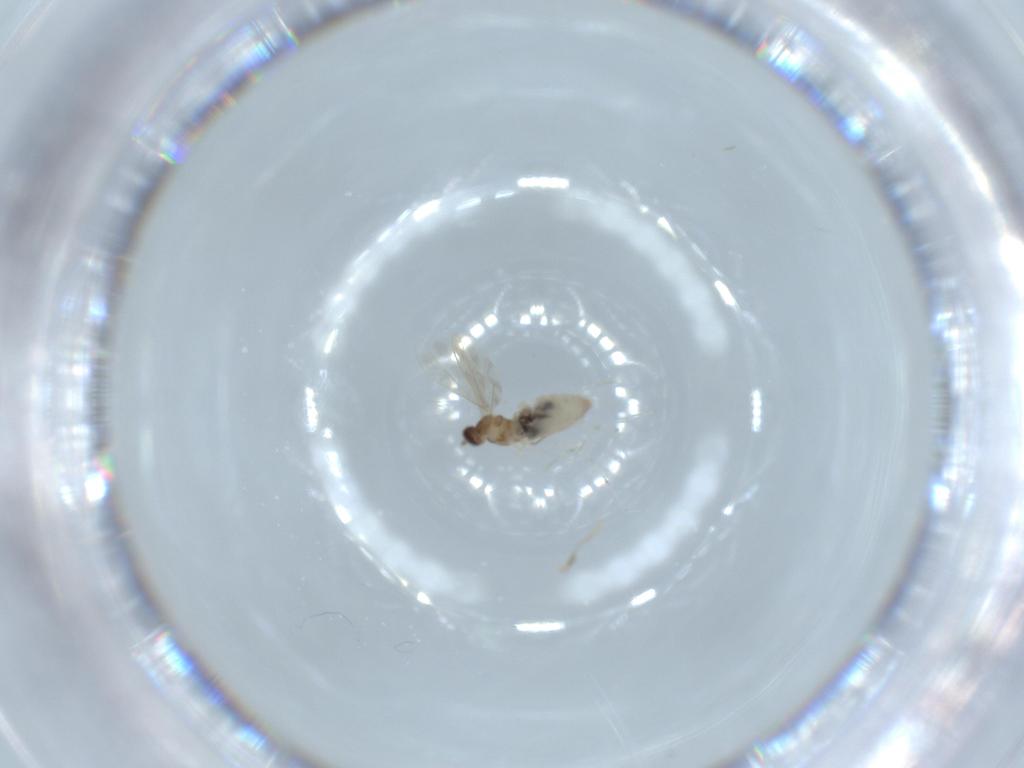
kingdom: Animalia
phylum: Arthropoda
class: Insecta
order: Diptera
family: Cecidomyiidae
